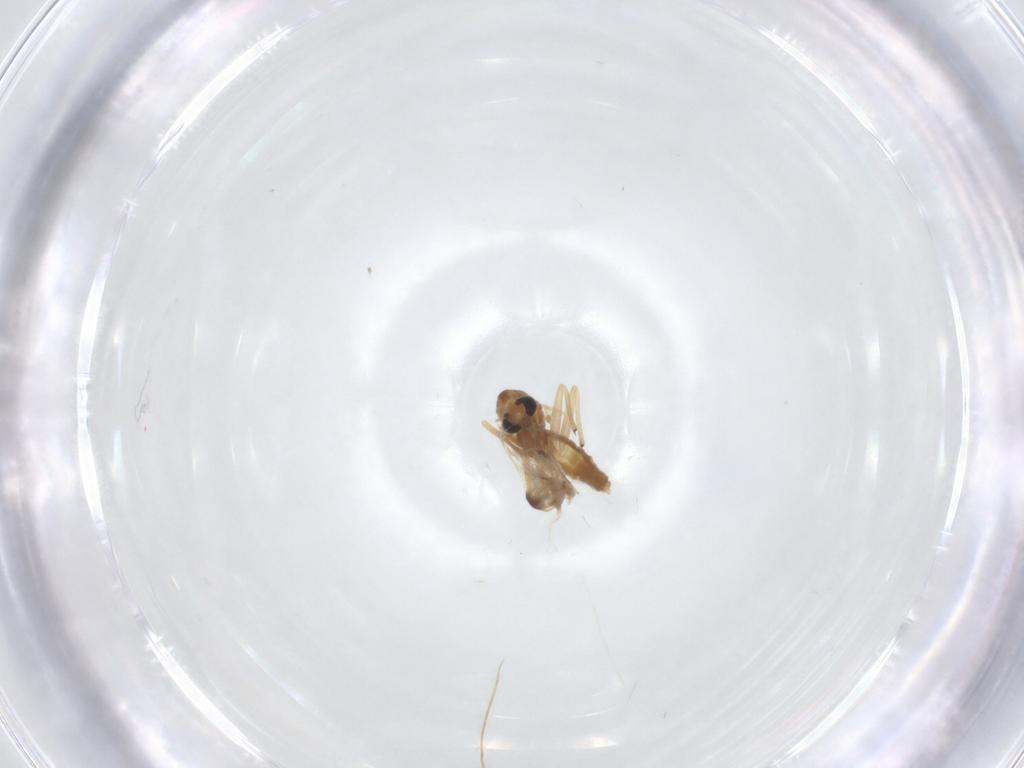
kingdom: Animalia
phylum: Arthropoda
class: Insecta
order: Diptera
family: Chironomidae
